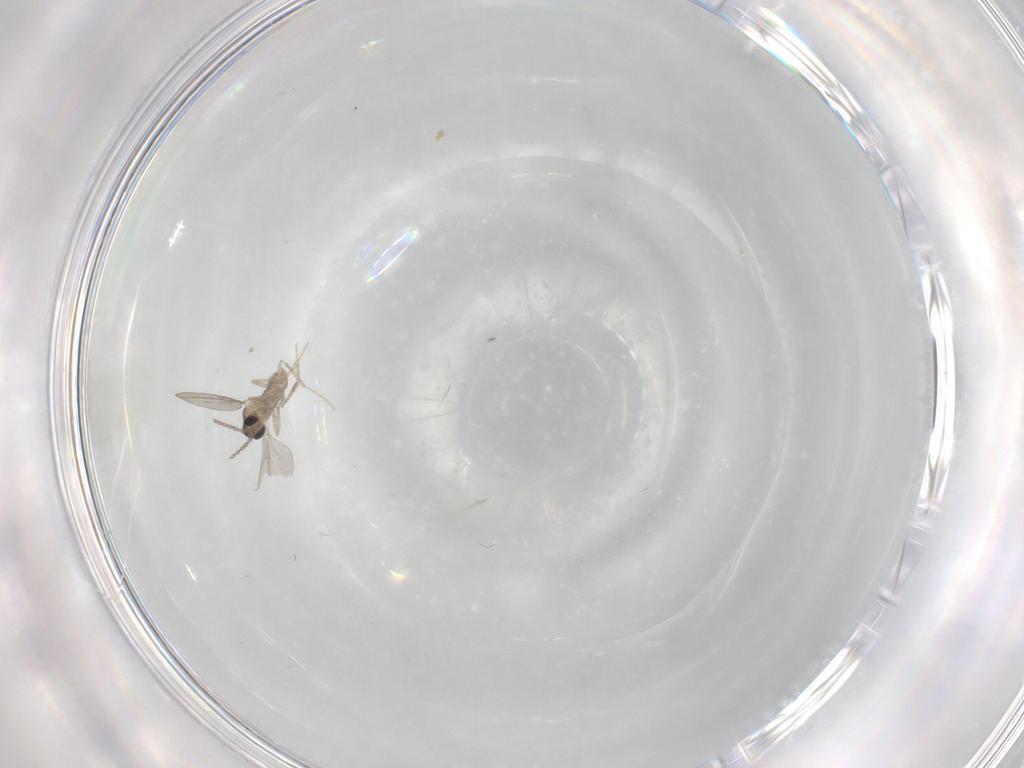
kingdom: Animalia
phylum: Arthropoda
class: Insecta
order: Diptera
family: Cecidomyiidae
